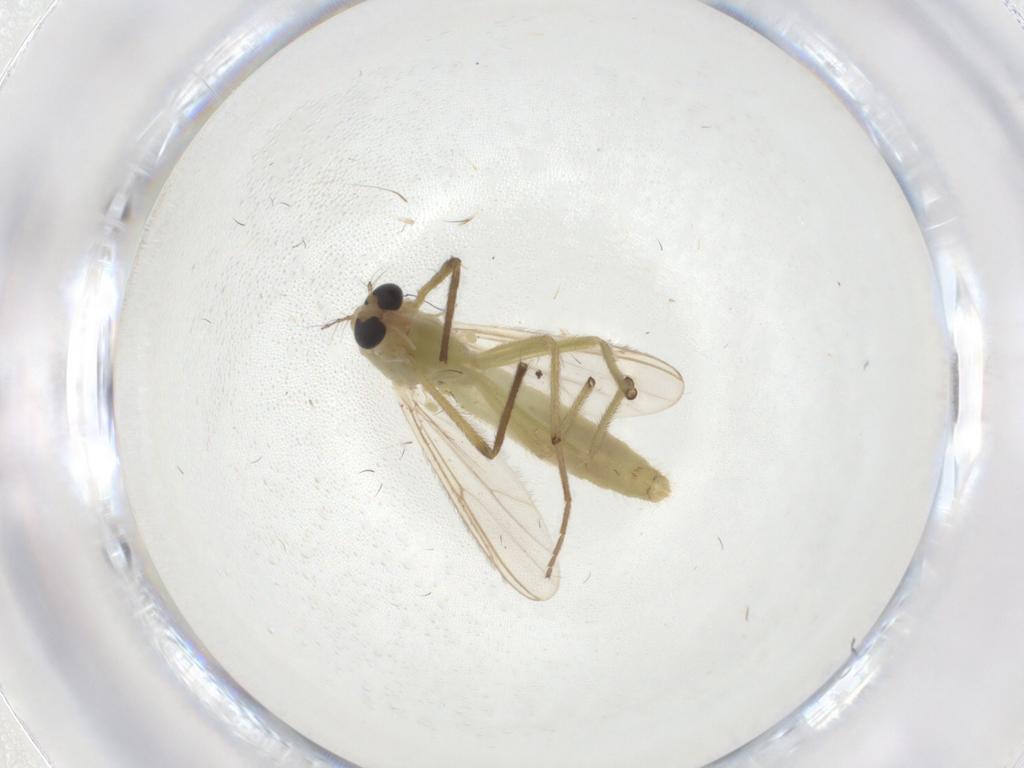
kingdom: Animalia
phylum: Arthropoda
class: Insecta
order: Diptera
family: Chironomidae
